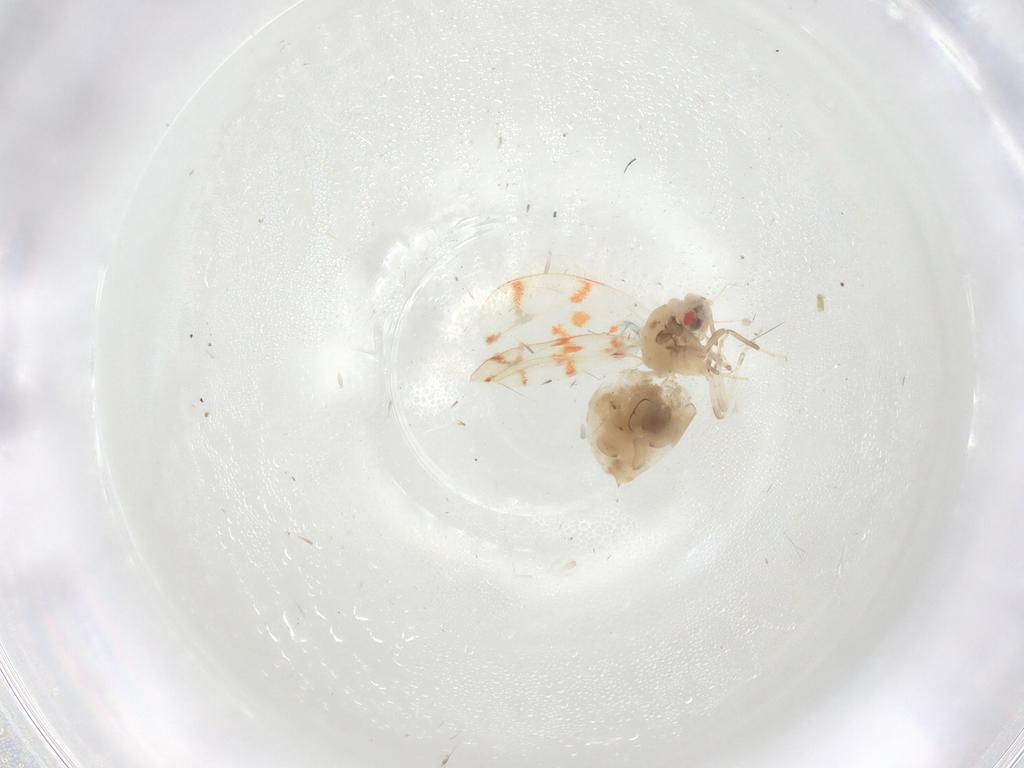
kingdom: Animalia
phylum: Arthropoda
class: Insecta
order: Hemiptera
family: Aleyrodidae
